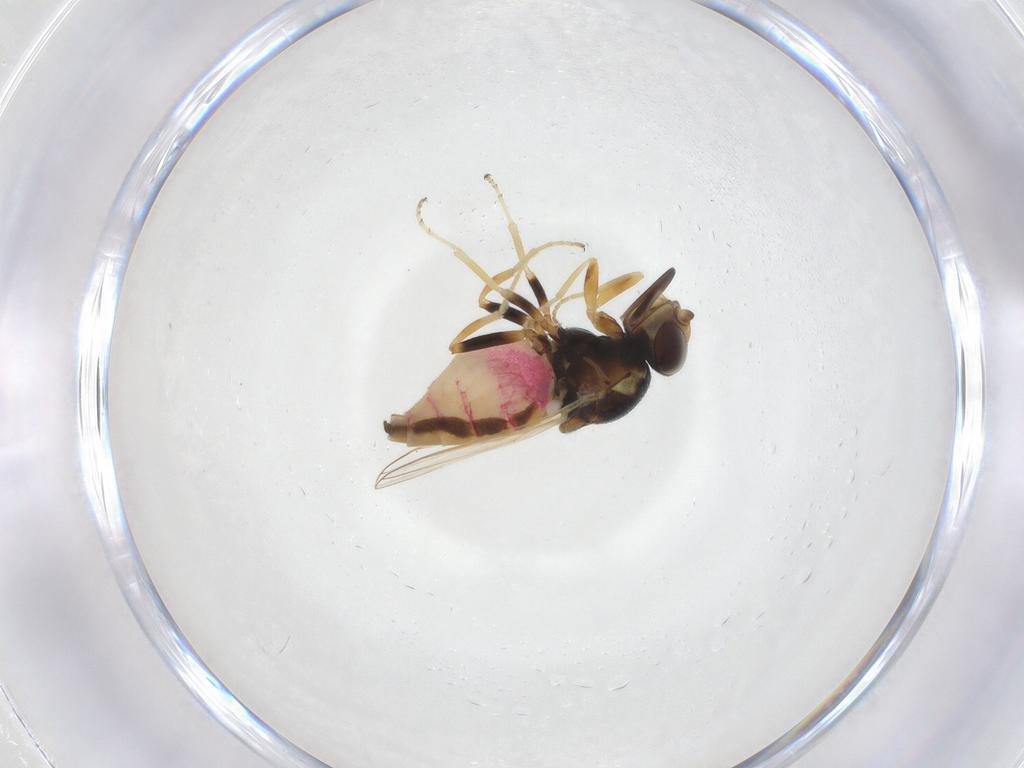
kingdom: Animalia
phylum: Arthropoda
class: Insecta
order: Diptera
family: Chloropidae
